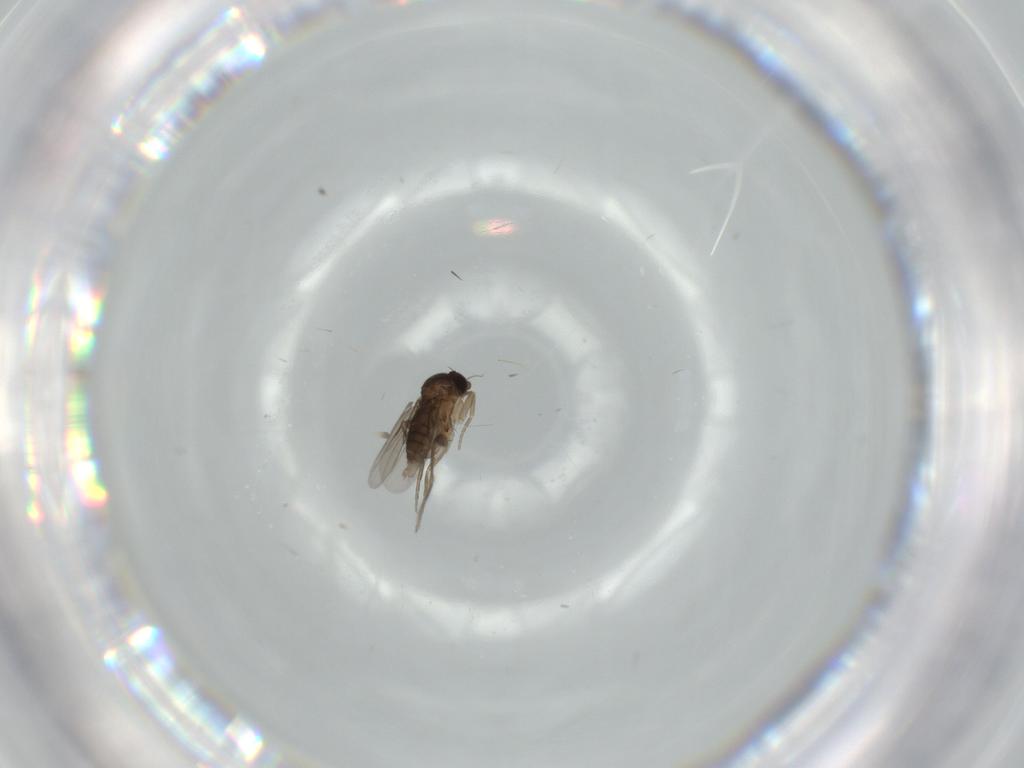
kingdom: Animalia
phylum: Arthropoda
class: Insecta
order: Diptera
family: Phoridae
